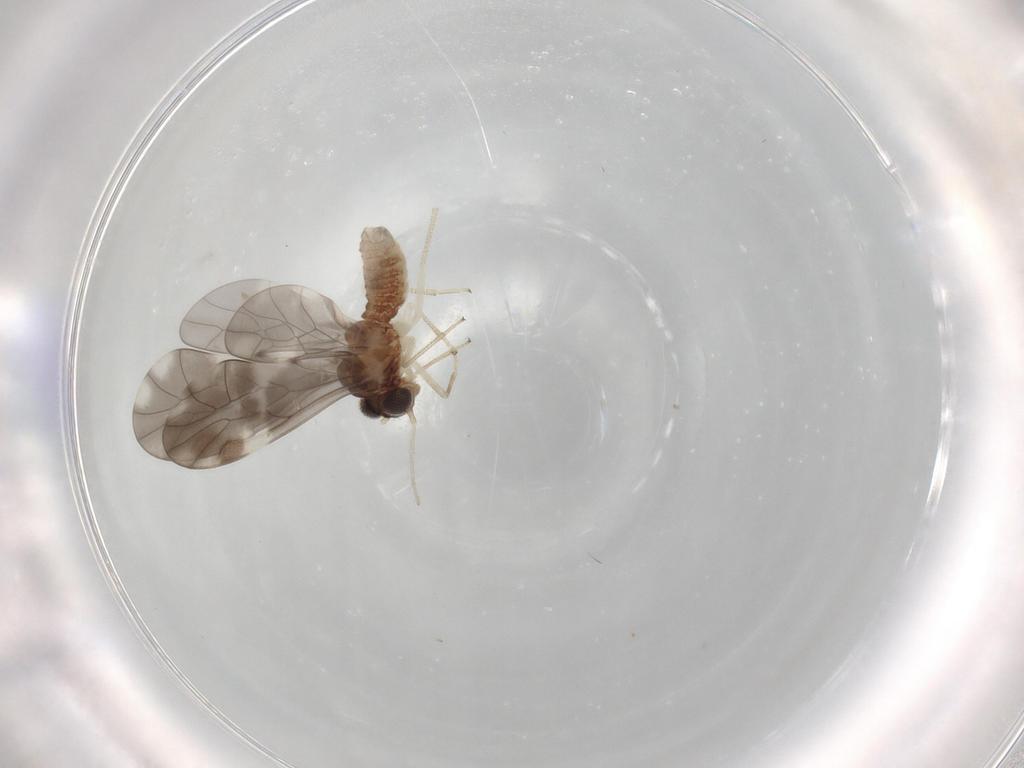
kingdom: Animalia
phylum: Arthropoda
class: Insecta
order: Psocodea
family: Peripsocidae
